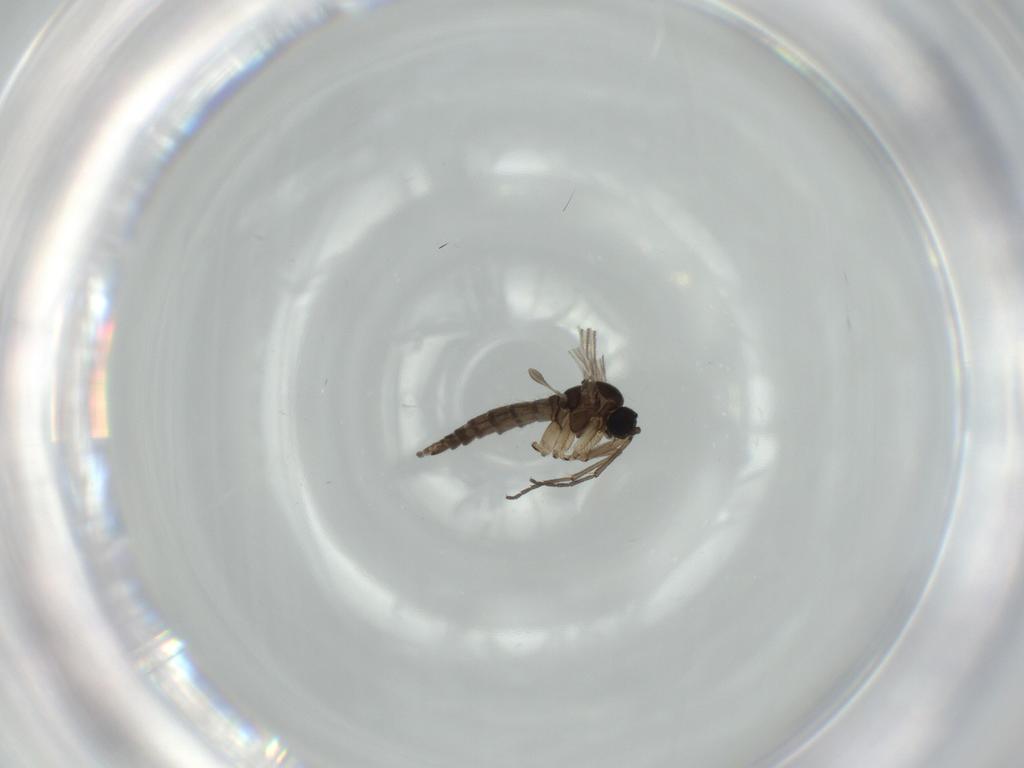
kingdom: Animalia
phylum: Arthropoda
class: Insecta
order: Diptera
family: Sciaridae
